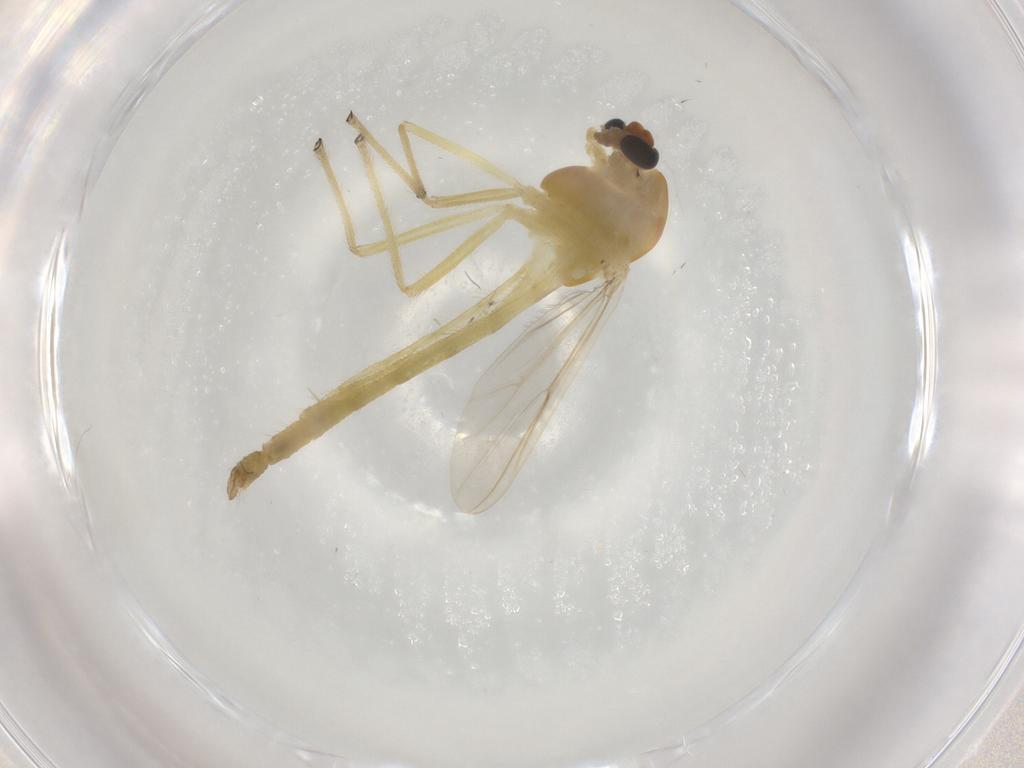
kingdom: Animalia
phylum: Arthropoda
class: Insecta
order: Diptera
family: Chironomidae
